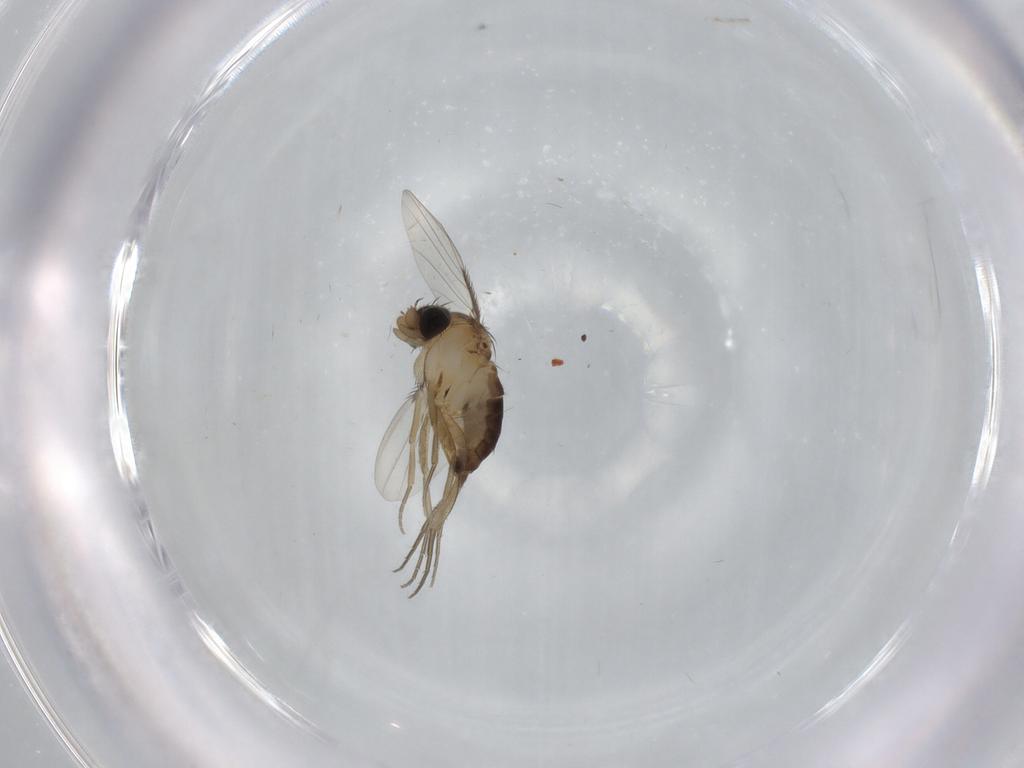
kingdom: Animalia
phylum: Arthropoda
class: Insecta
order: Diptera
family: Phoridae
